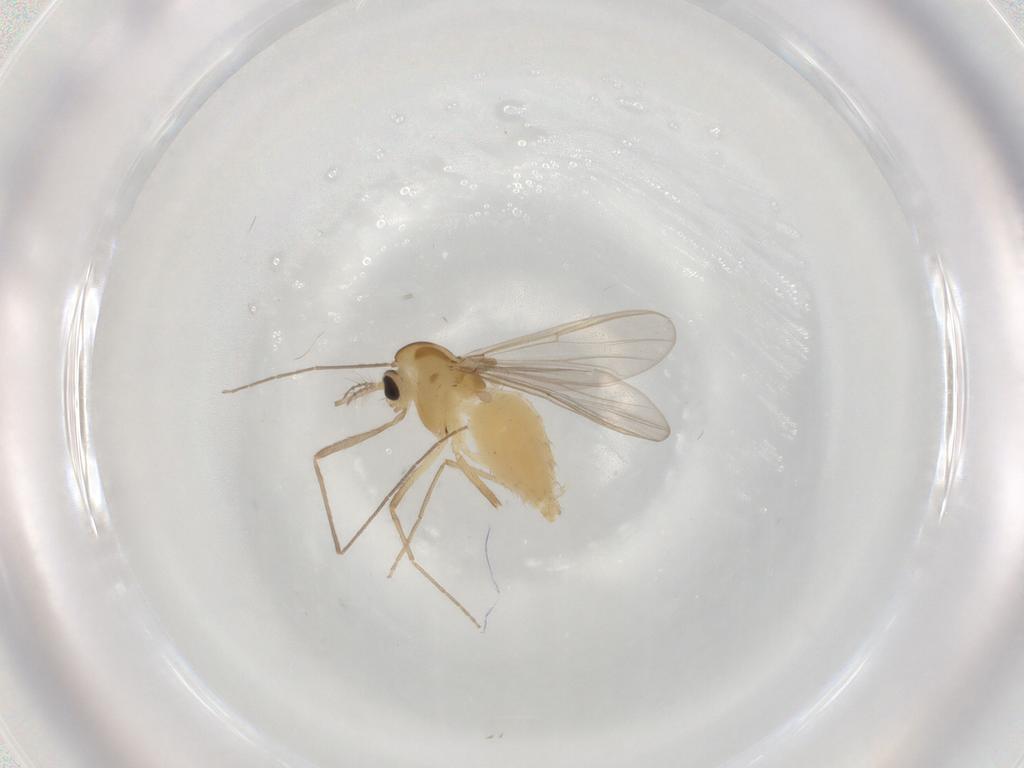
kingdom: Animalia
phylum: Arthropoda
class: Insecta
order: Diptera
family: Chironomidae
